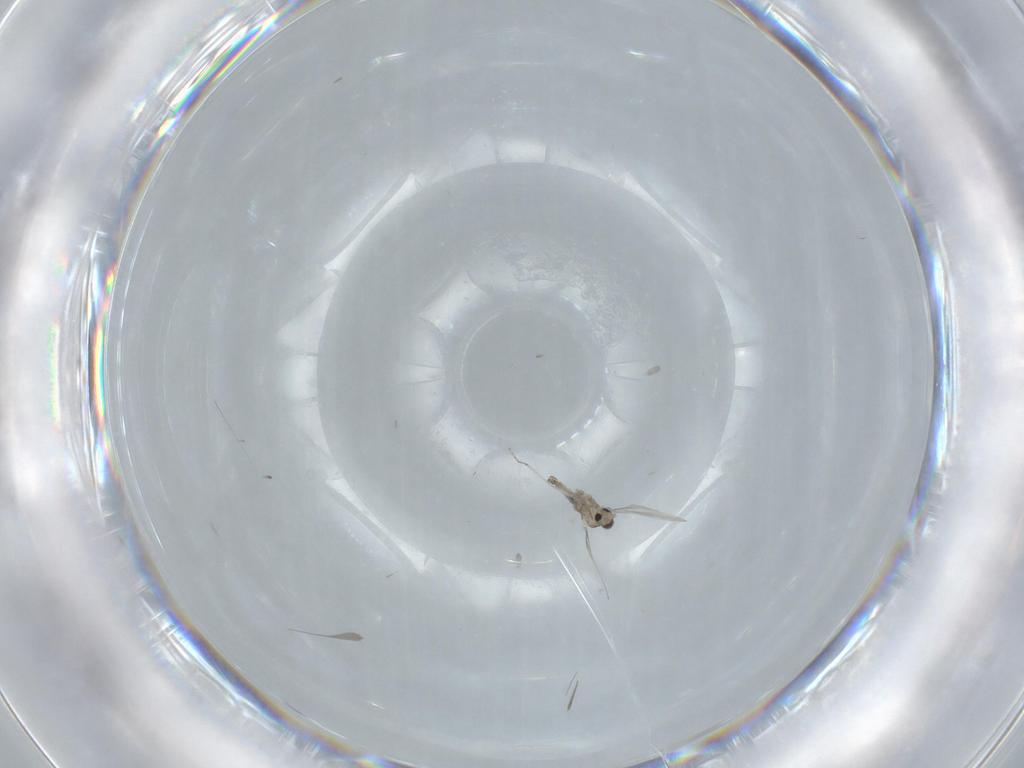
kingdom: Animalia
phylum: Arthropoda
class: Insecta
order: Diptera
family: Cecidomyiidae
